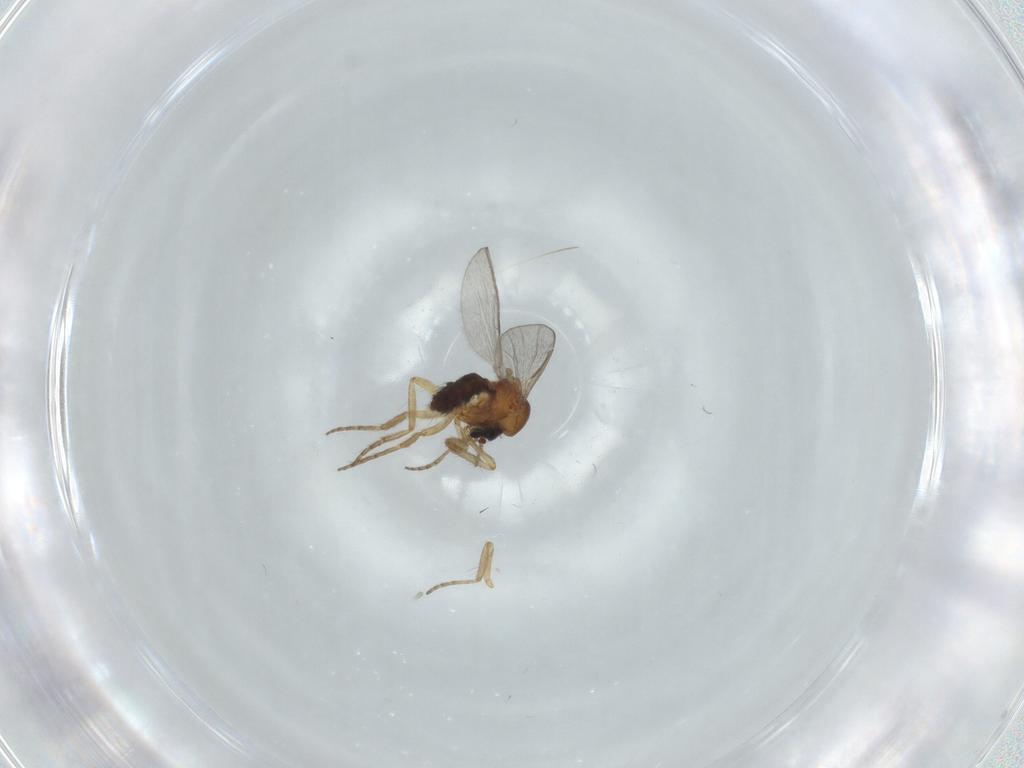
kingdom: Animalia
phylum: Arthropoda
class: Insecta
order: Diptera
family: Ceratopogonidae
